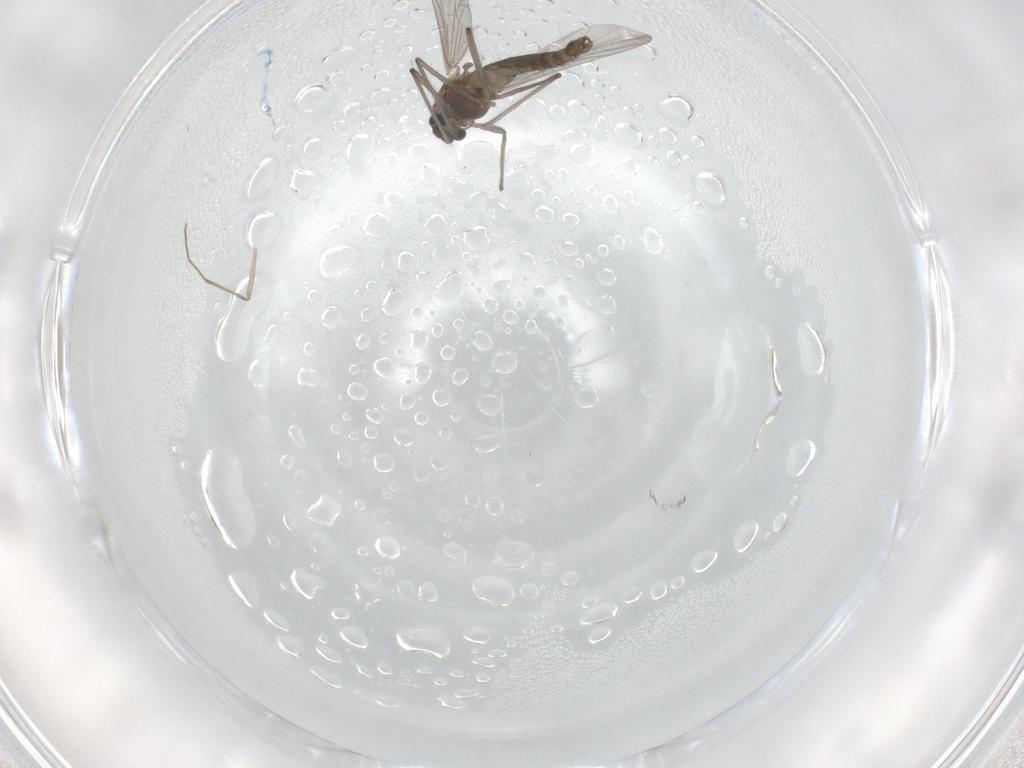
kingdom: Animalia
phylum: Arthropoda
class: Insecta
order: Diptera
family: Chironomidae
